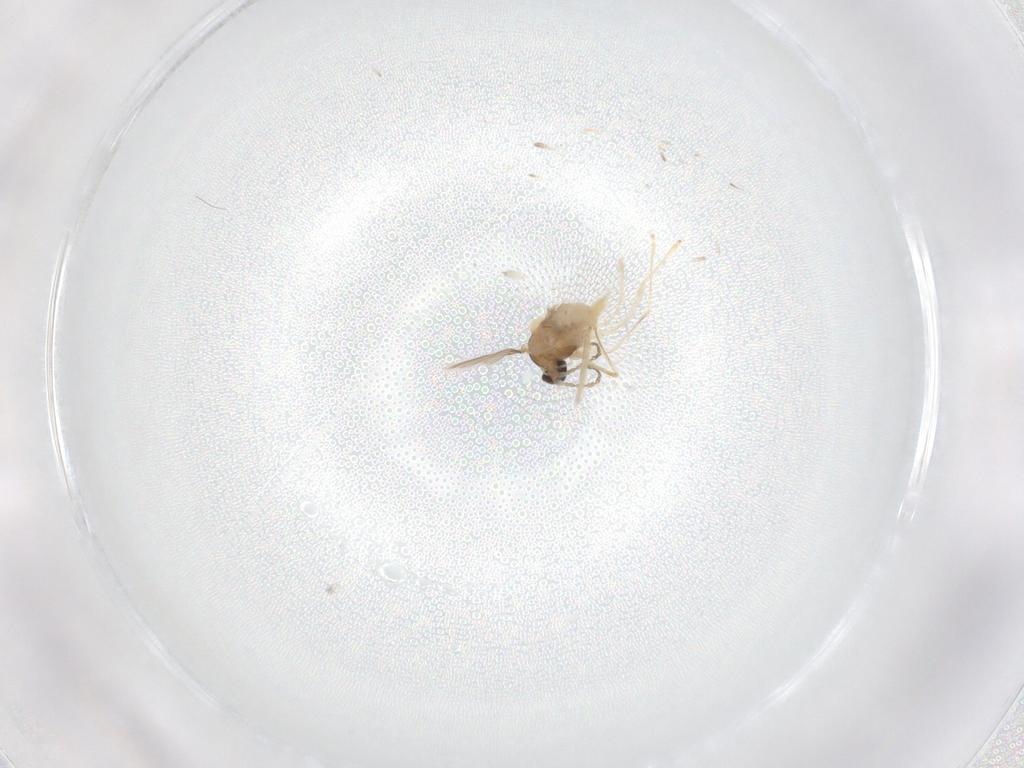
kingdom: Animalia
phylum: Arthropoda
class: Insecta
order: Diptera
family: Cecidomyiidae
